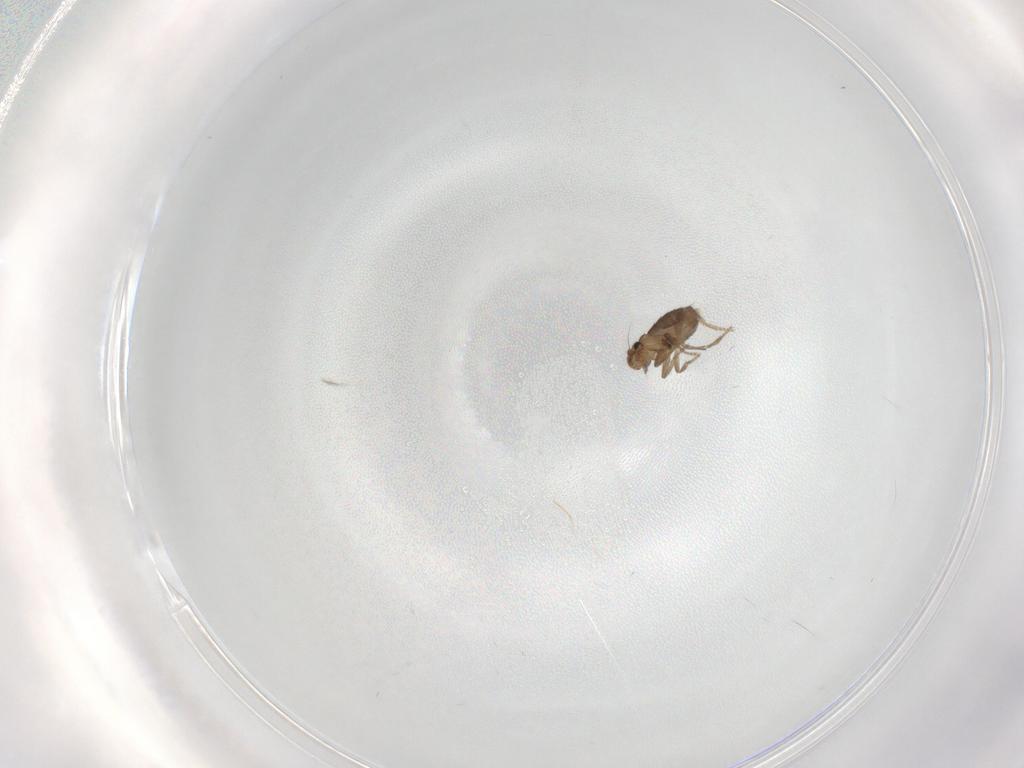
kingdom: Animalia
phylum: Arthropoda
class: Insecta
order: Diptera
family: Phoridae
